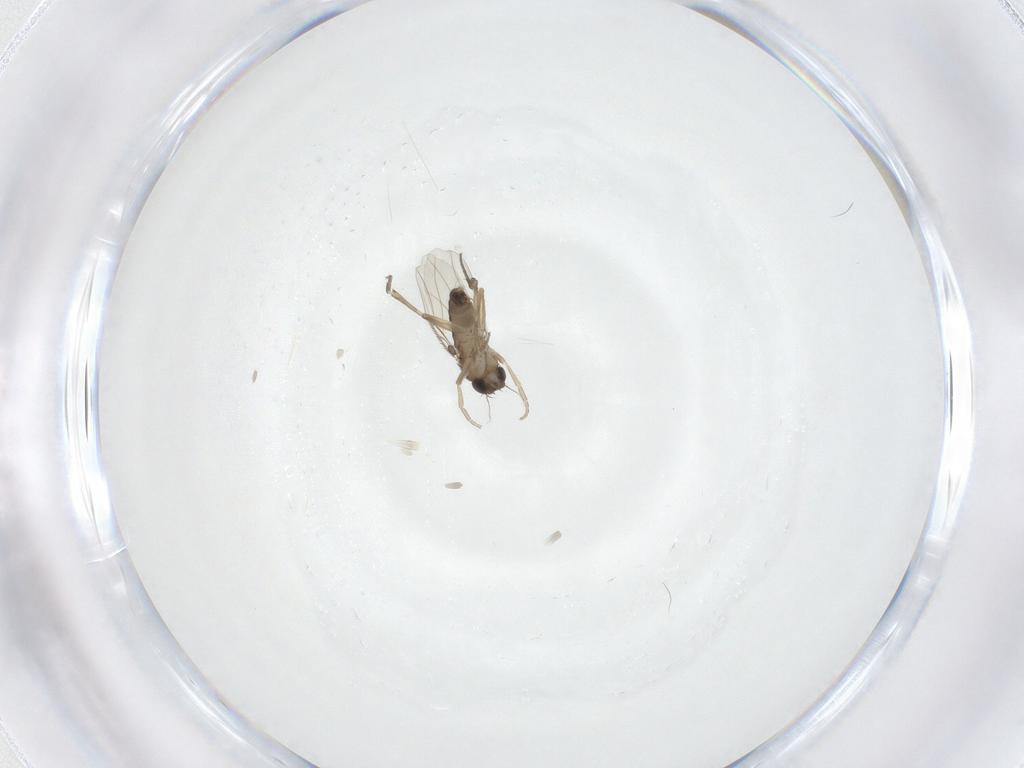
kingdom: Animalia
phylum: Arthropoda
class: Insecta
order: Diptera
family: Phoridae
